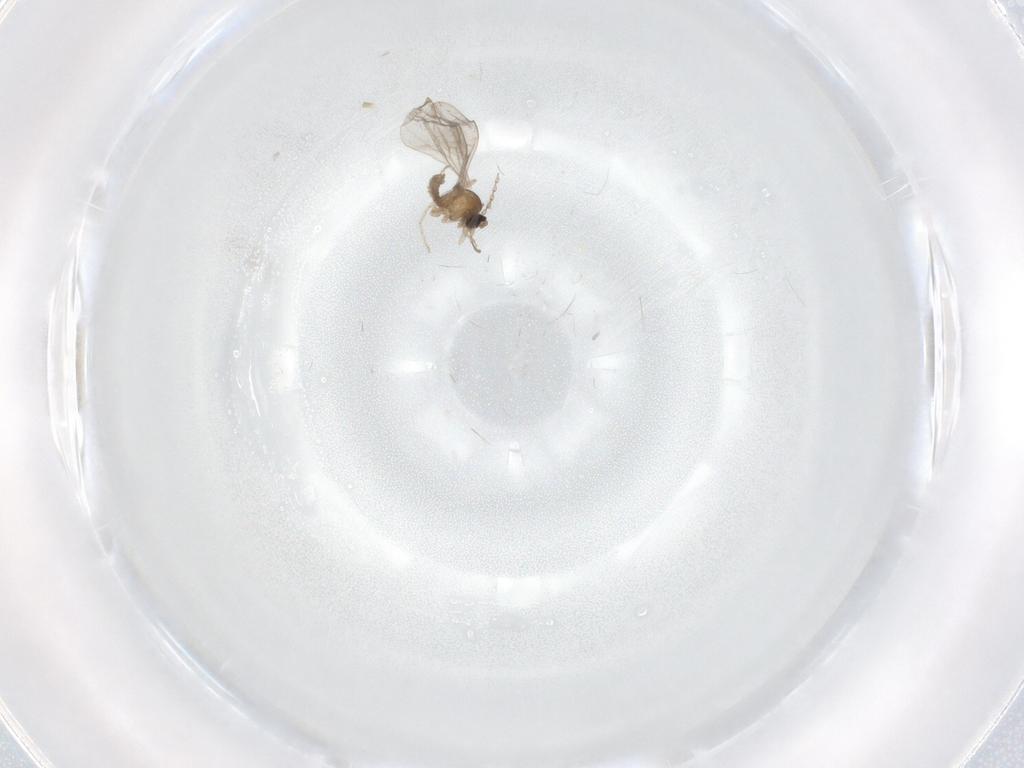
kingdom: Animalia
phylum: Arthropoda
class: Insecta
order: Diptera
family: Cecidomyiidae
